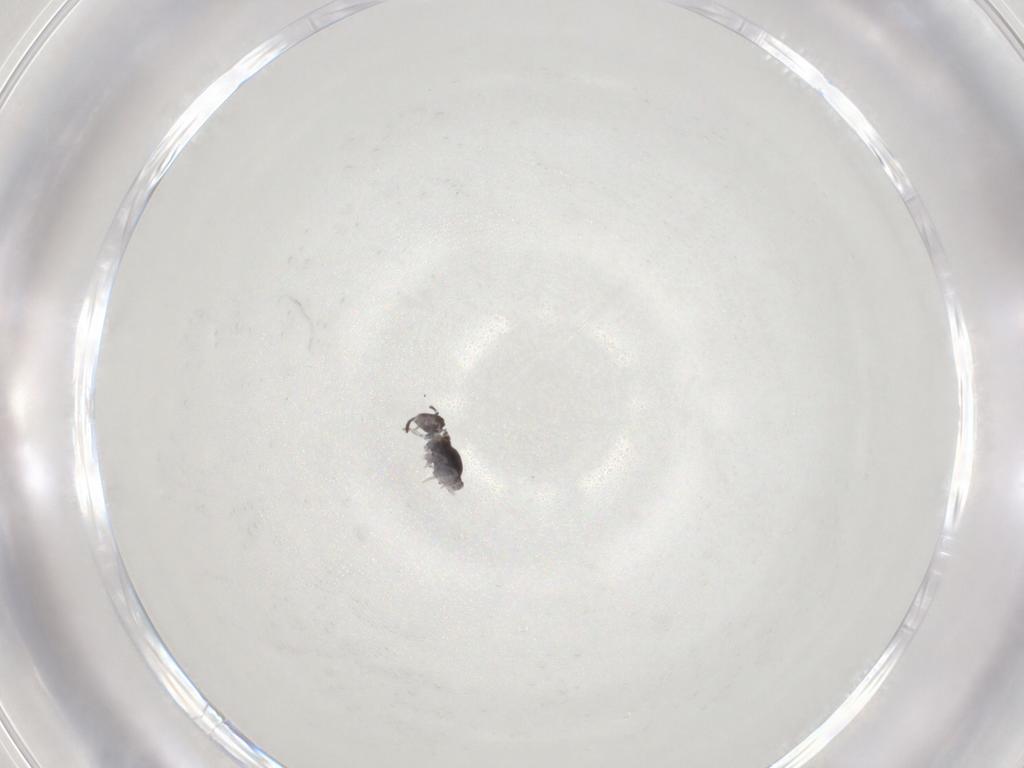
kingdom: Animalia
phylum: Arthropoda
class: Collembola
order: Symphypleona
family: Katiannidae
